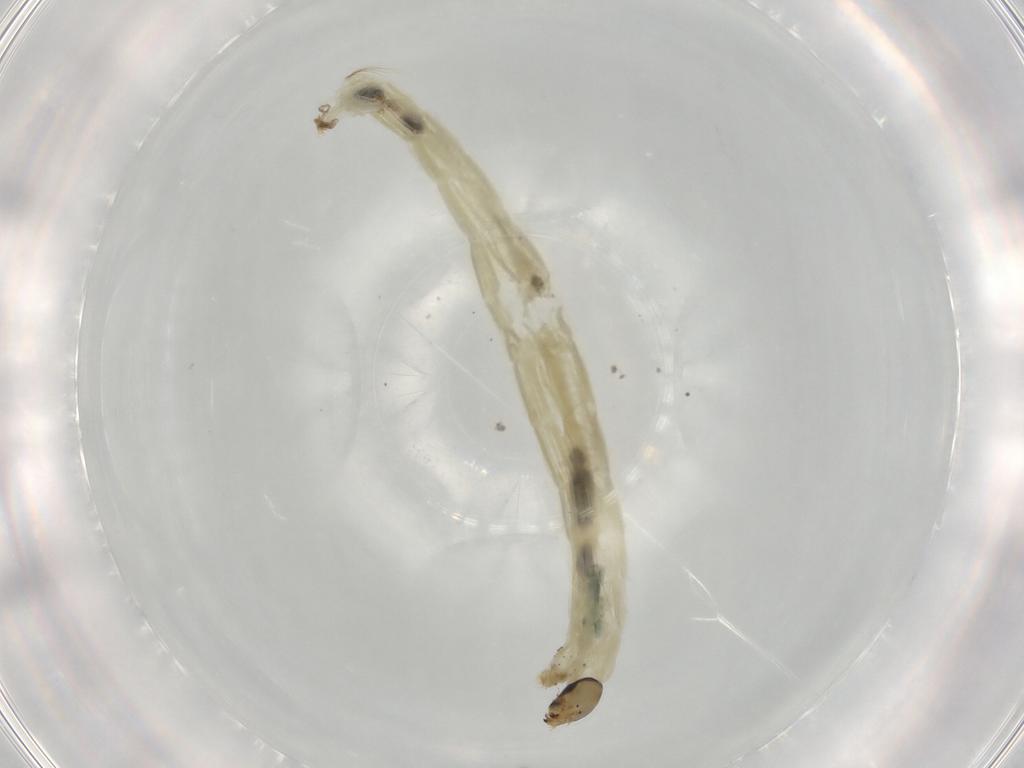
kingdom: Animalia
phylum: Arthropoda
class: Insecta
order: Diptera
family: Chironomidae
